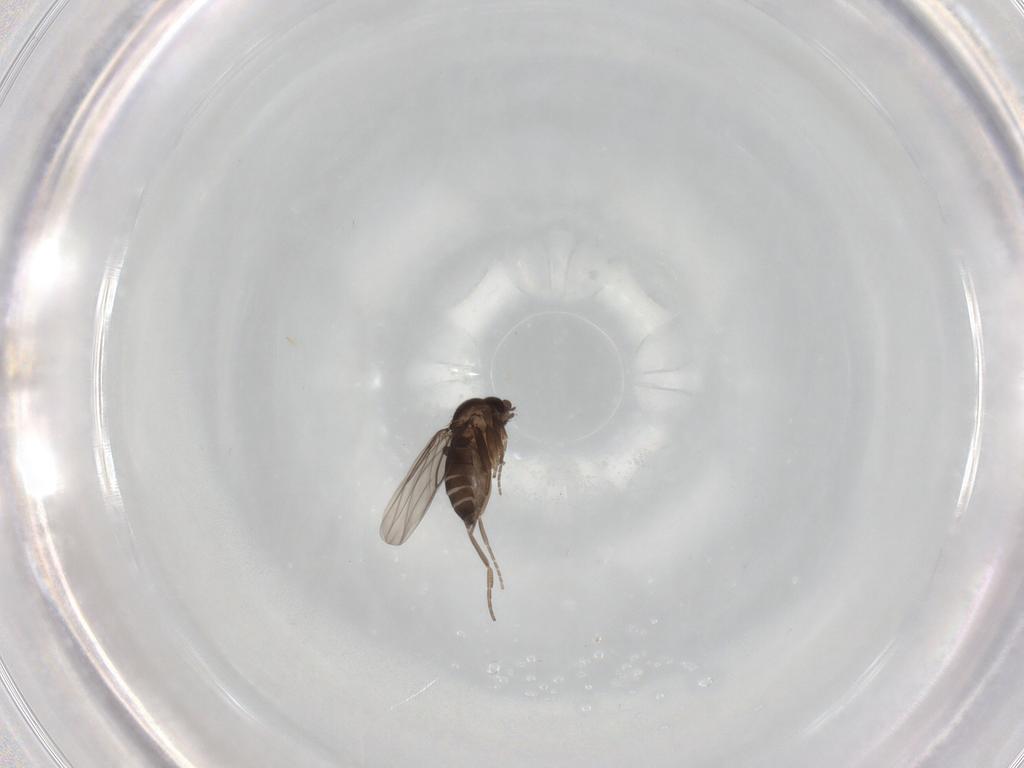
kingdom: Animalia
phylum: Arthropoda
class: Insecta
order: Diptera
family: Cecidomyiidae
